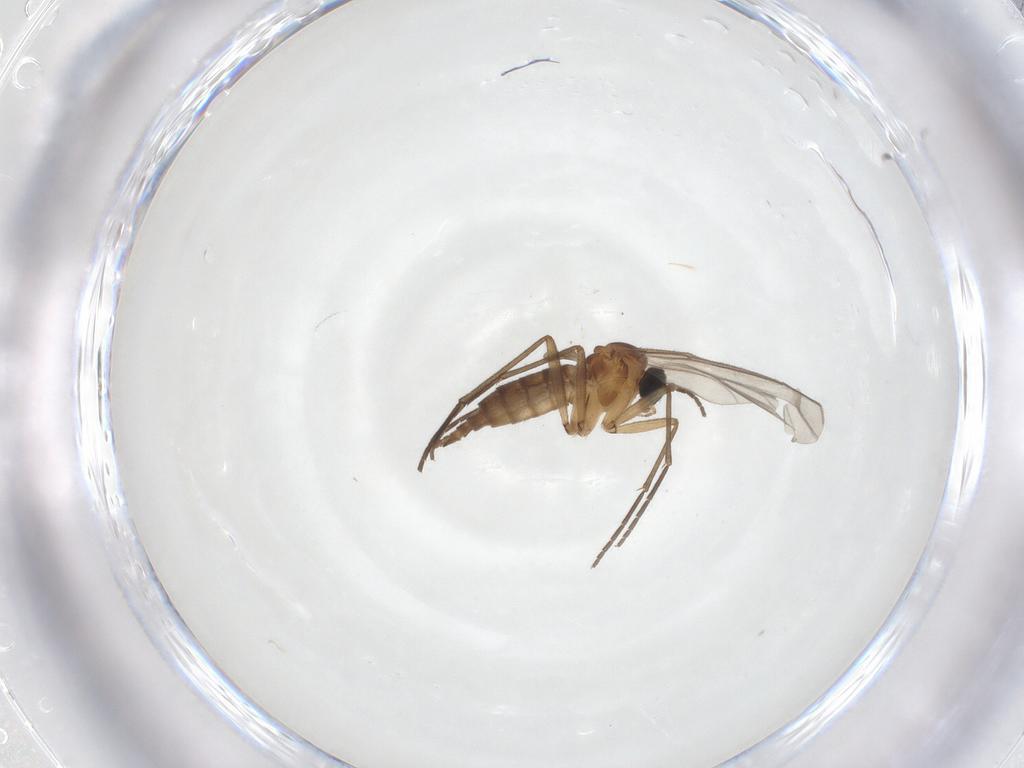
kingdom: Animalia
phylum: Arthropoda
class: Insecta
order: Diptera
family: Sciaridae
